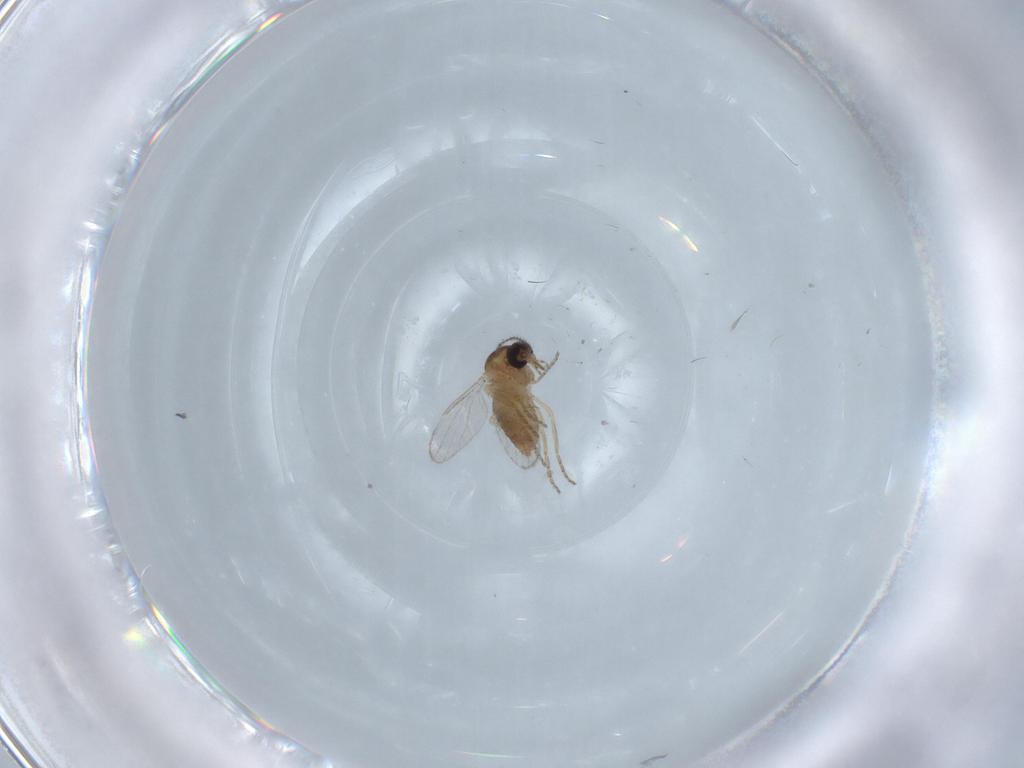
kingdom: Animalia
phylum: Arthropoda
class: Insecta
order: Diptera
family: Ceratopogonidae
